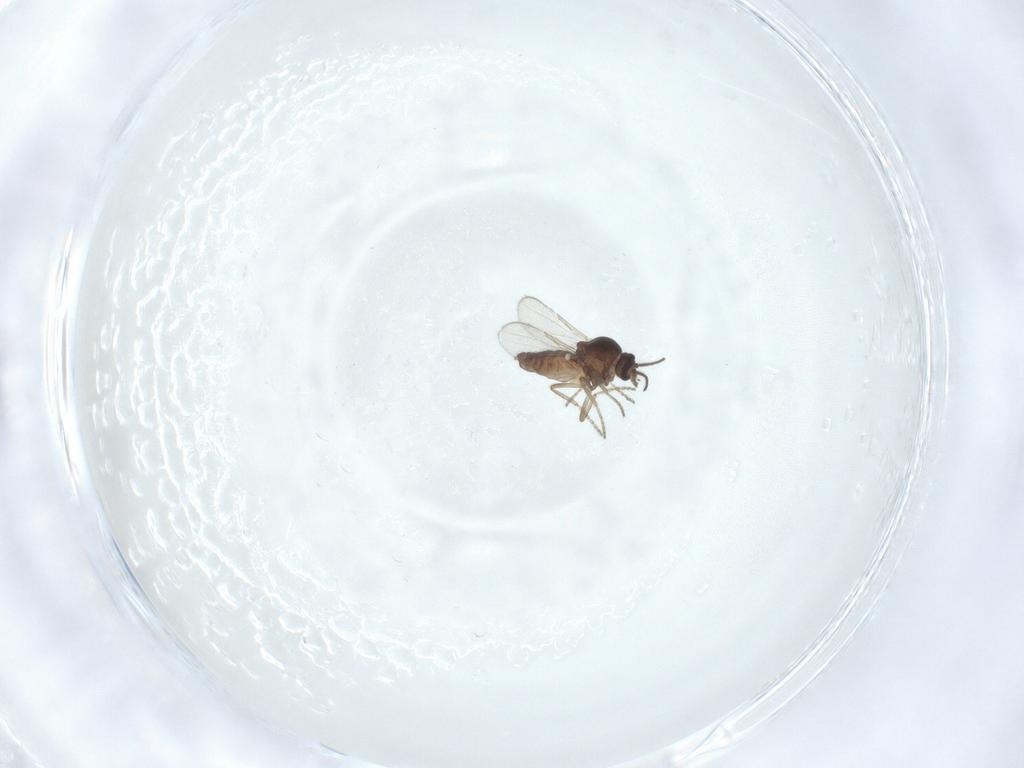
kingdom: Animalia
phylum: Arthropoda
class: Insecta
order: Diptera
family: Ceratopogonidae
